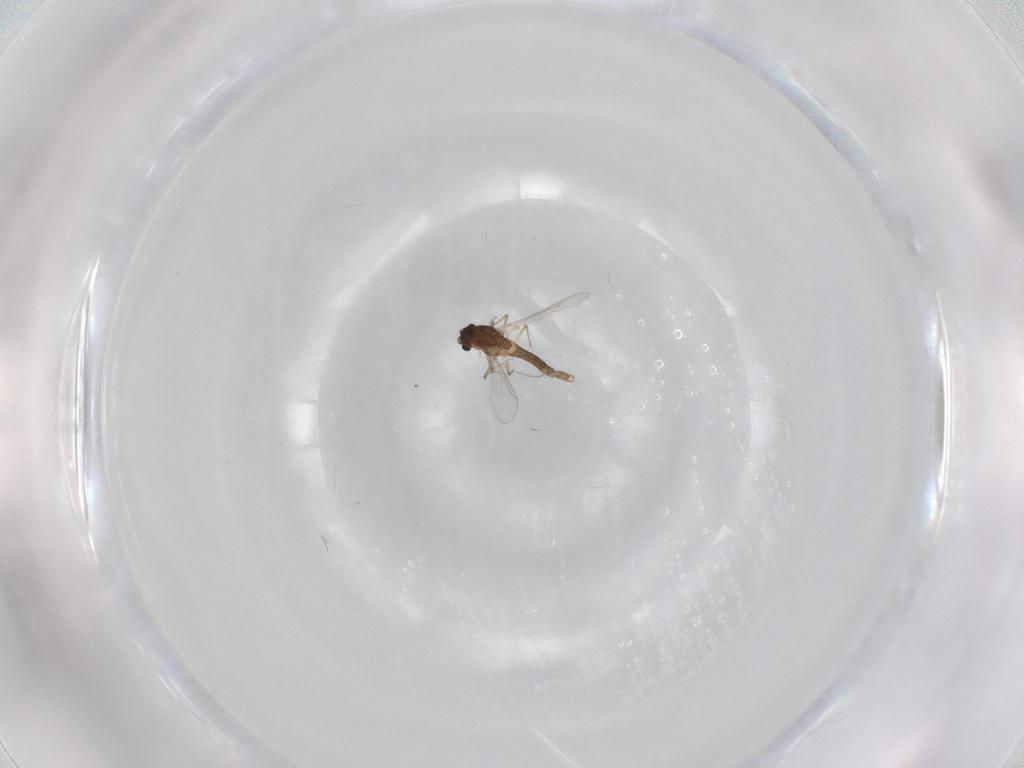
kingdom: Animalia
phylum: Arthropoda
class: Insecta
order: Diptera
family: Chironomidae
